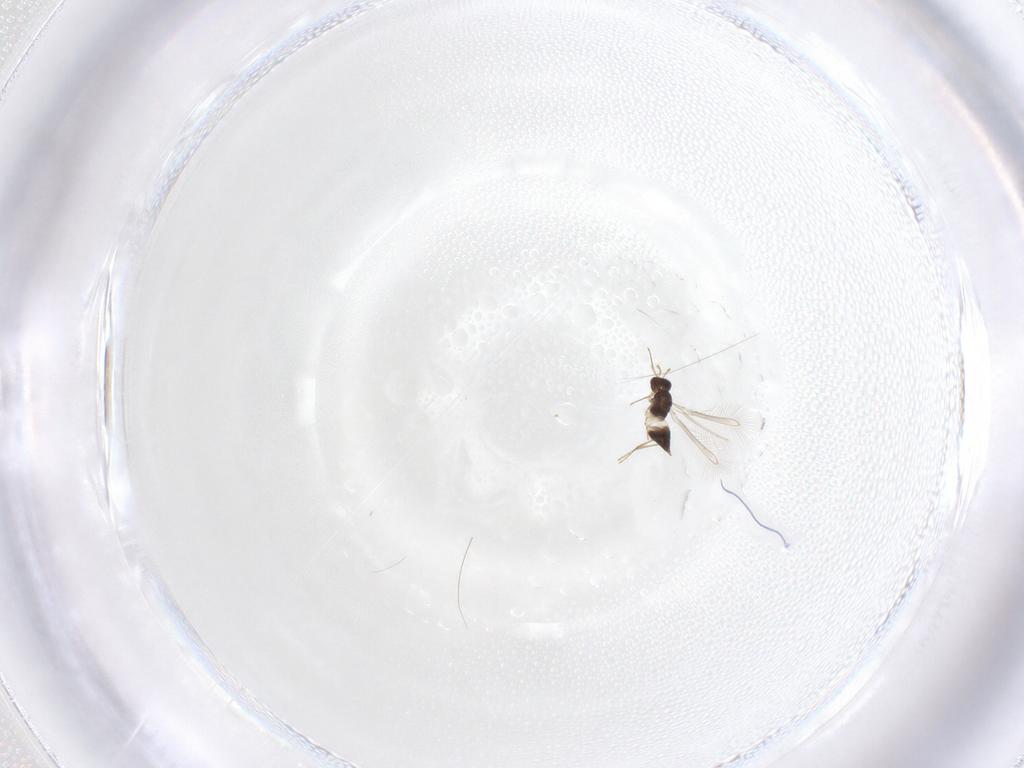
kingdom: Animalia
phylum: Arthropoda
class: Insecta
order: Hymenoptera
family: Mymaridae
